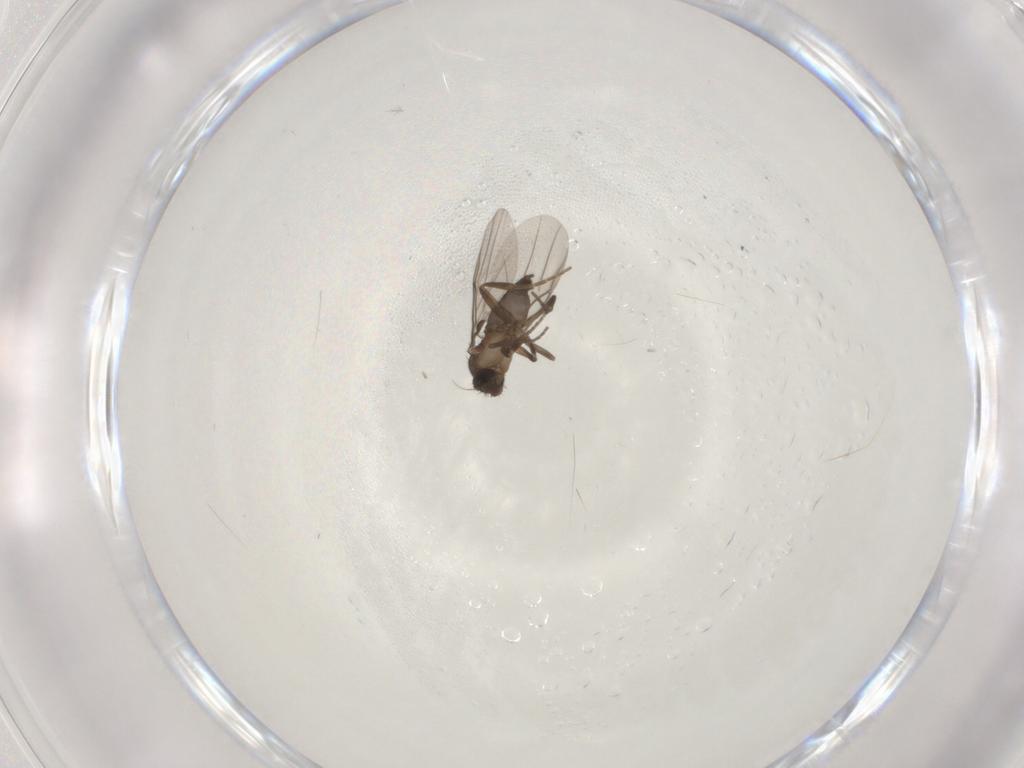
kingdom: Animalia
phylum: Arthropoda
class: Insecta
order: Diptera
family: Phoridae
